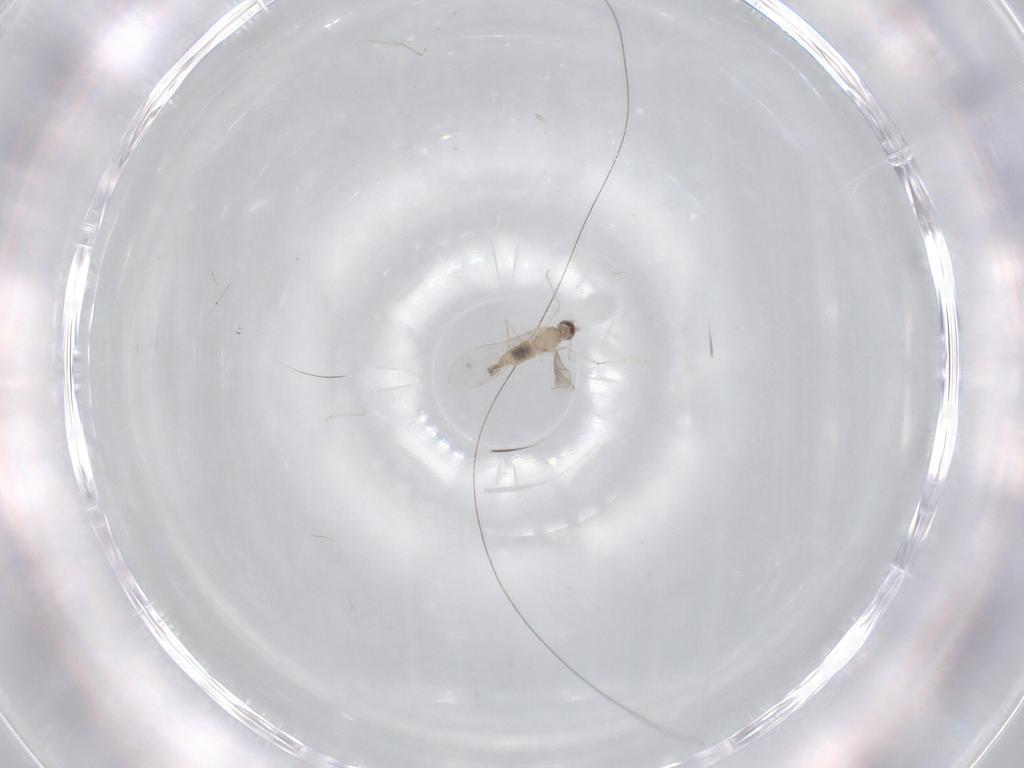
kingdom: Animalia
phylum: Arthropoda
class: Insecta
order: Diptera
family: Cecidomyiidae
